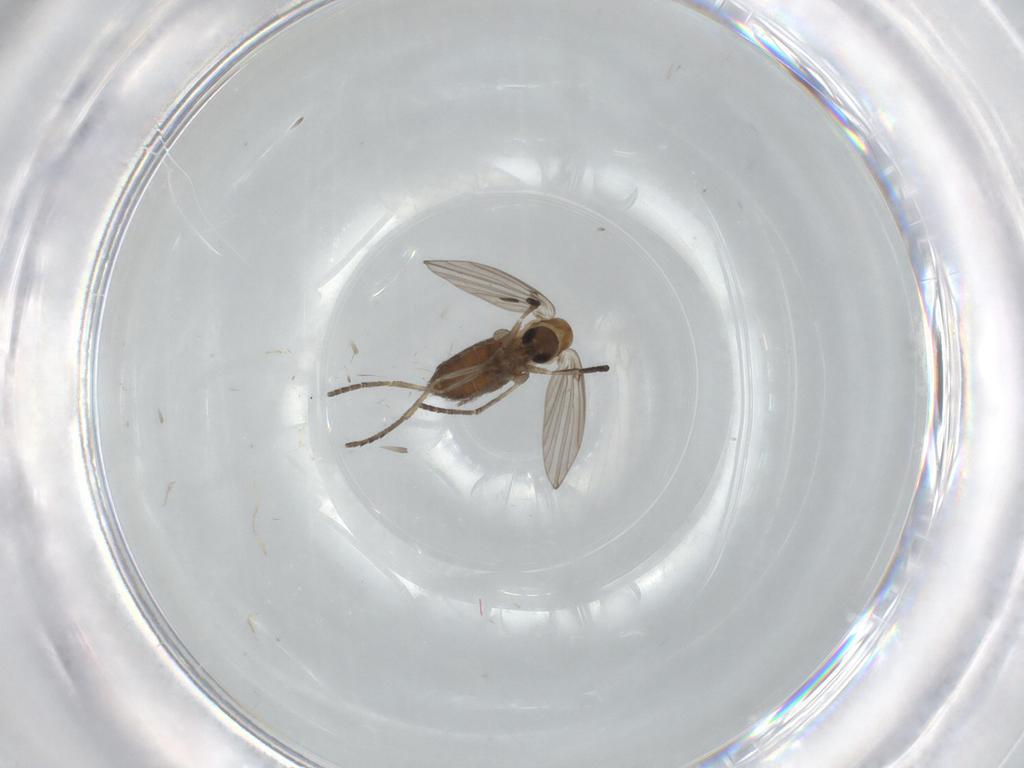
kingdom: Animalia
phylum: Arthropoda
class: Insecta
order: Diptera
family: Muscidae
